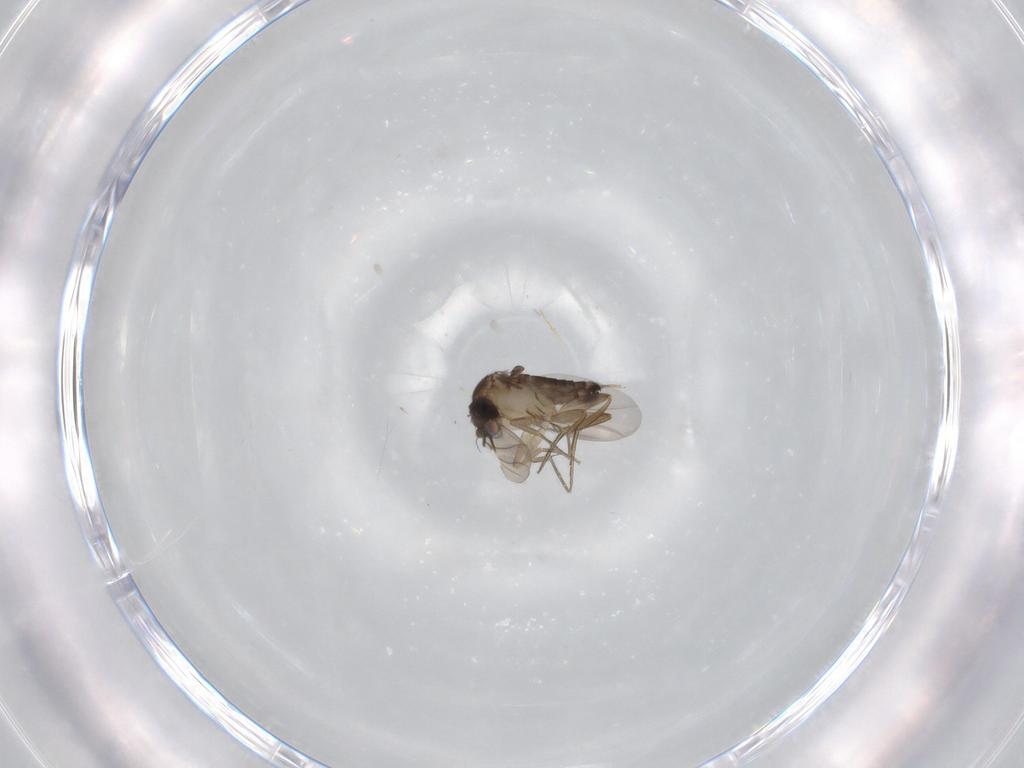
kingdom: Animalia
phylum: Arthropoda
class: Insecta
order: Diptera
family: Phoridae
